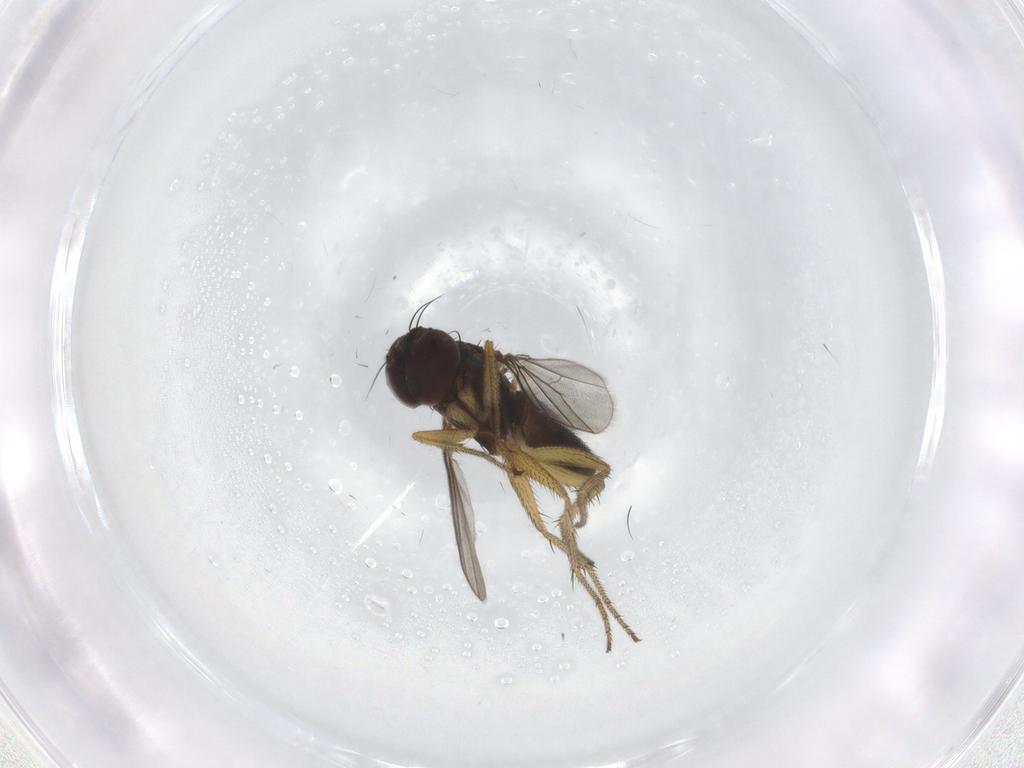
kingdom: Animalia
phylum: Arthropoda
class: Insecta
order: Diptera
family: Dolichopodidae
